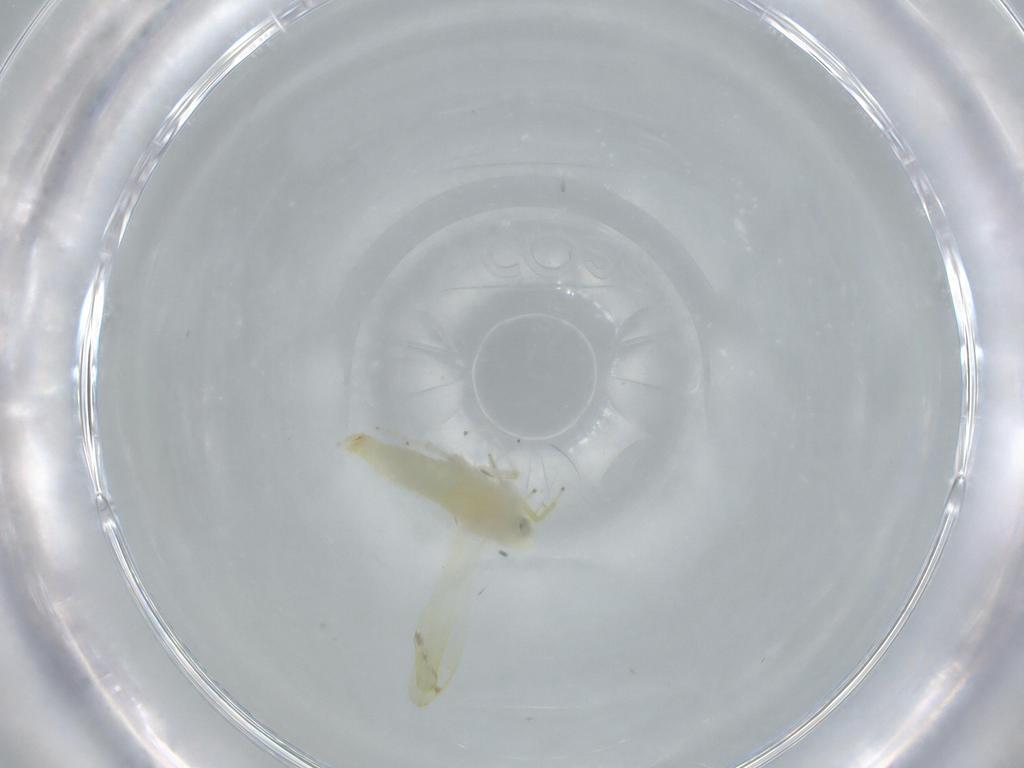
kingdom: Animalia
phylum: Arthropoda
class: Insecta
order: Hemiptera
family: Cicadellidae
